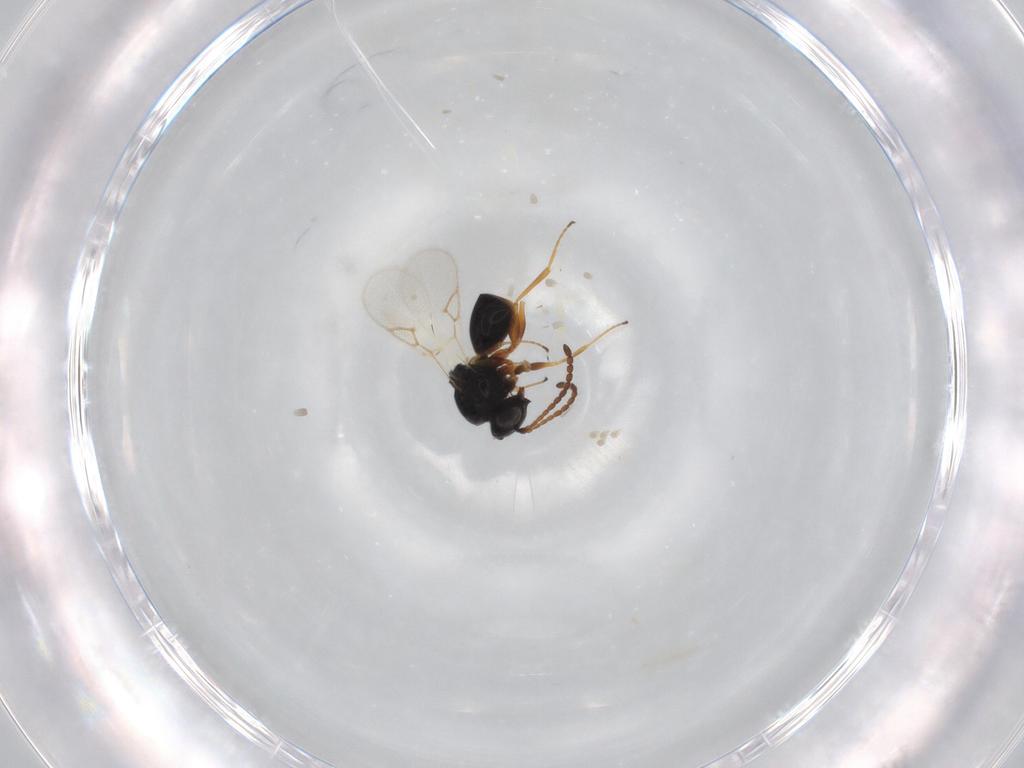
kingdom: Animalia
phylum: Arthropoda
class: Insecta
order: Hymenoptera
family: Figitidae
